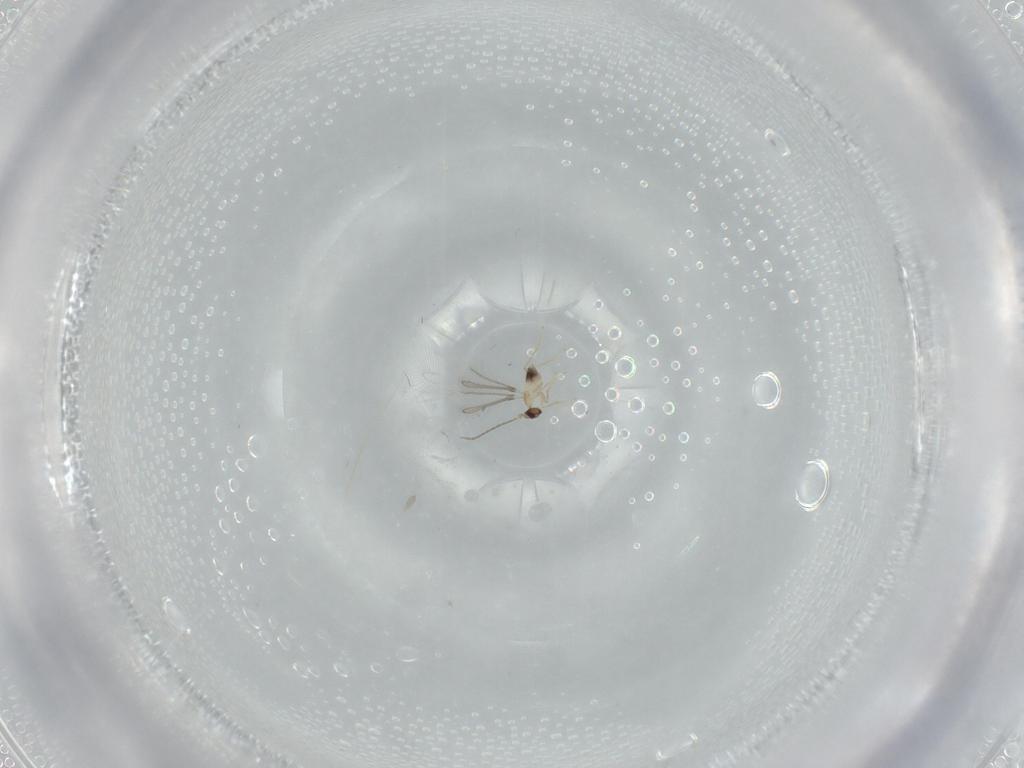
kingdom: Animalia
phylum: Arthropoda
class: Insecta
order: Hymenoptera
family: Mymaridae
